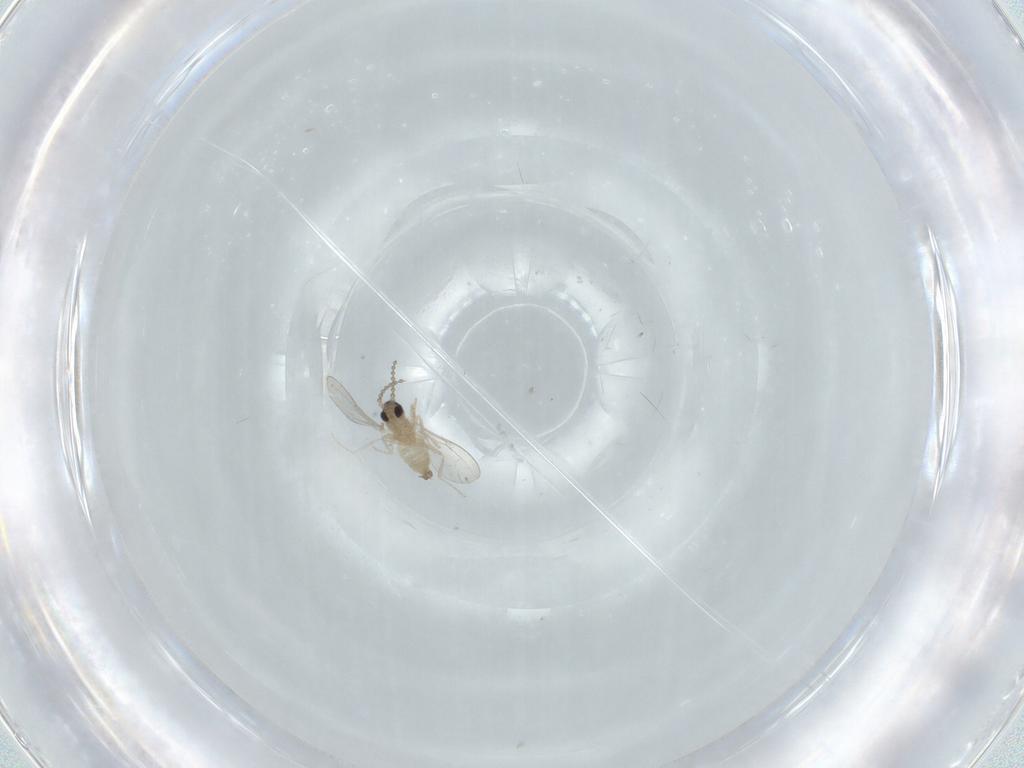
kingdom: Animalia
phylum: Arthropoda
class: Insecta
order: Diptera
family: Cecidomyiidae
